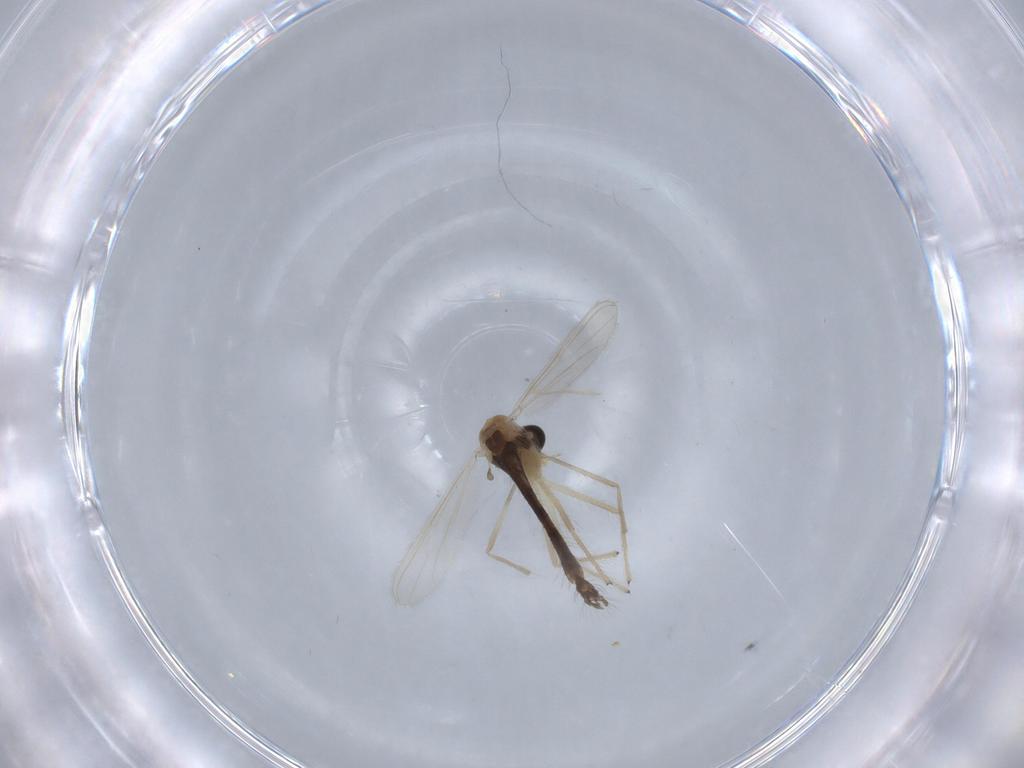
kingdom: Animalia
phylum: Arthropoda
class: Insecta
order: Diptera
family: Chironomidae
